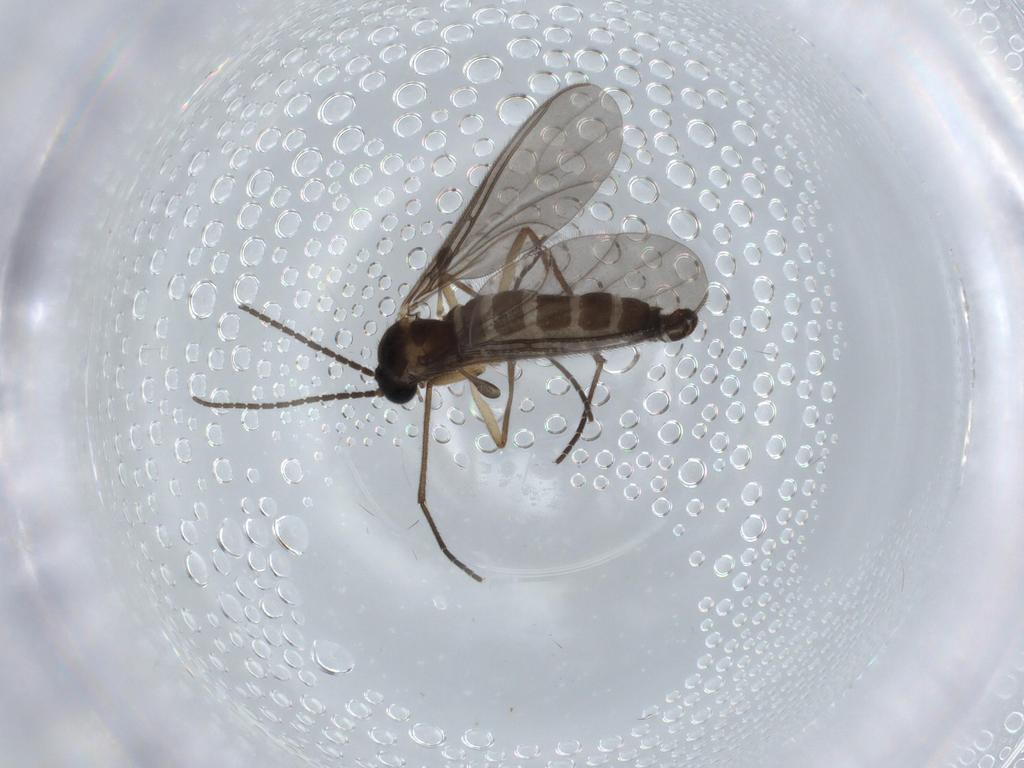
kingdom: Animalia
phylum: Arthropoda
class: Insecta
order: Diptera
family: Sciaridae
